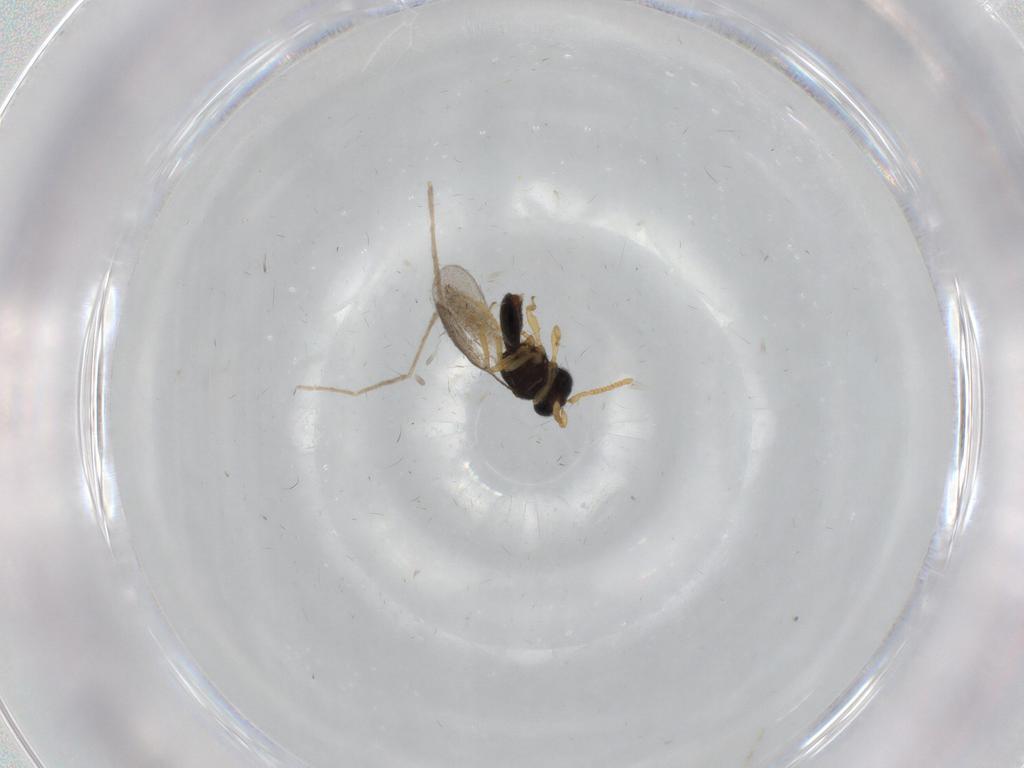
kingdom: Animalia
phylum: Arthropoda
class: Insecta
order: Hymenoptera
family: Scelionidae
